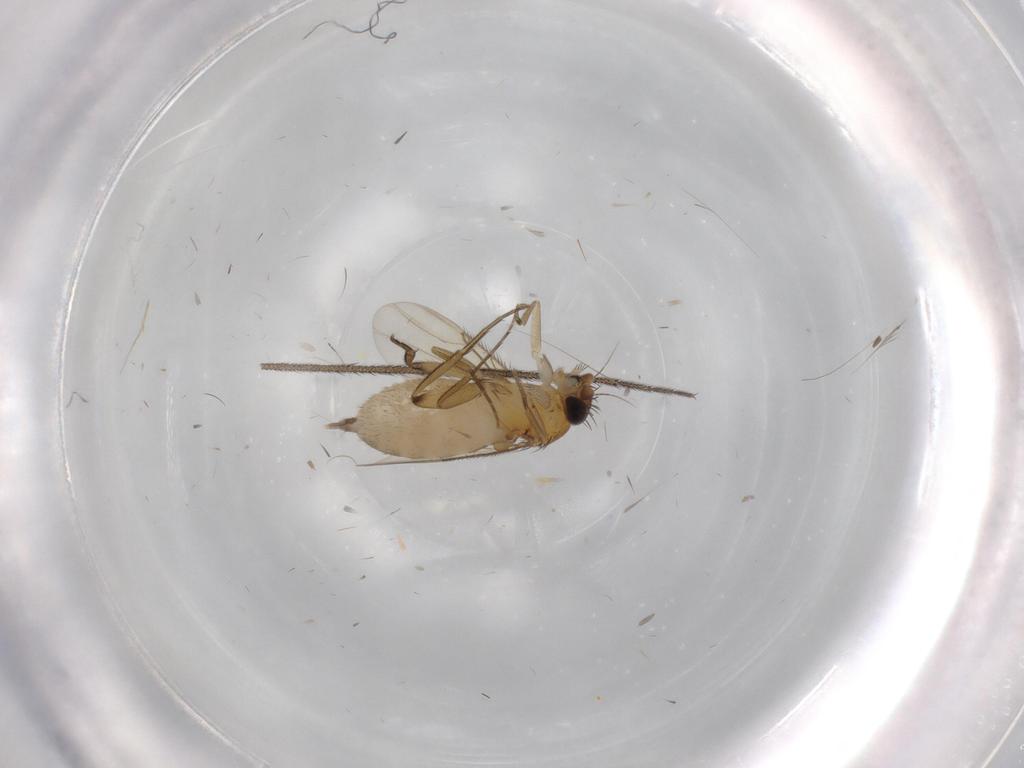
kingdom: Animalia
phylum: Arthropoda
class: Insecta
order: Diptera
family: Ditomyiidae
